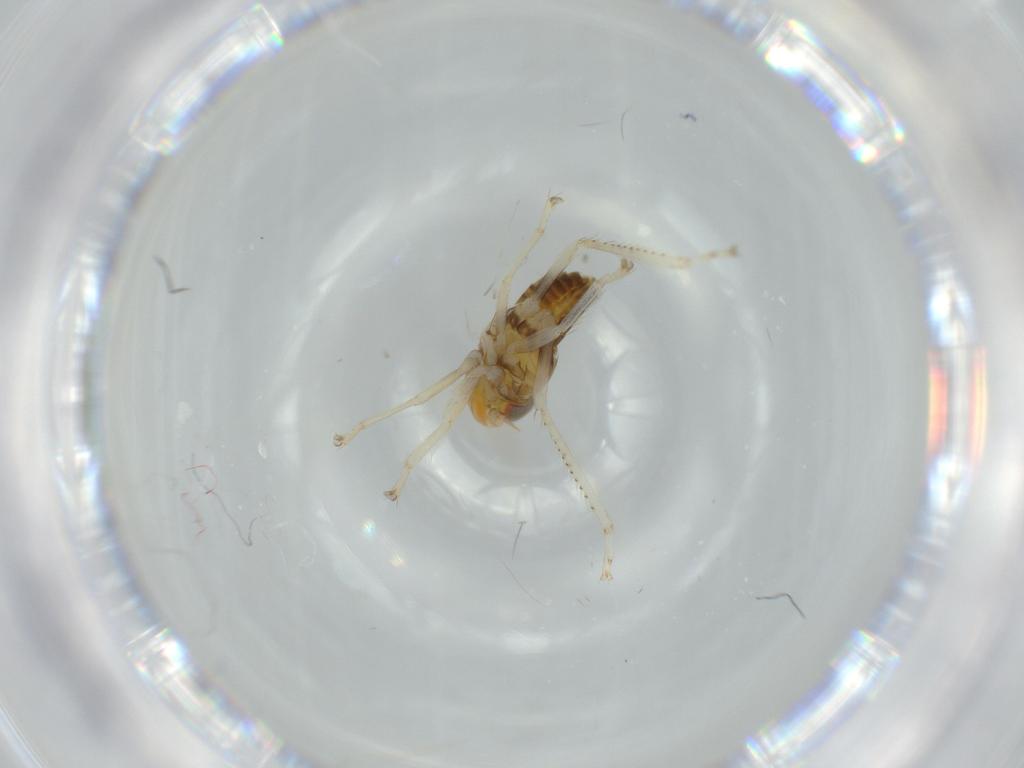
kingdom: Animalia
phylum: Arthropoda
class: Insecta
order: Hemiptera
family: Cicadellidae
